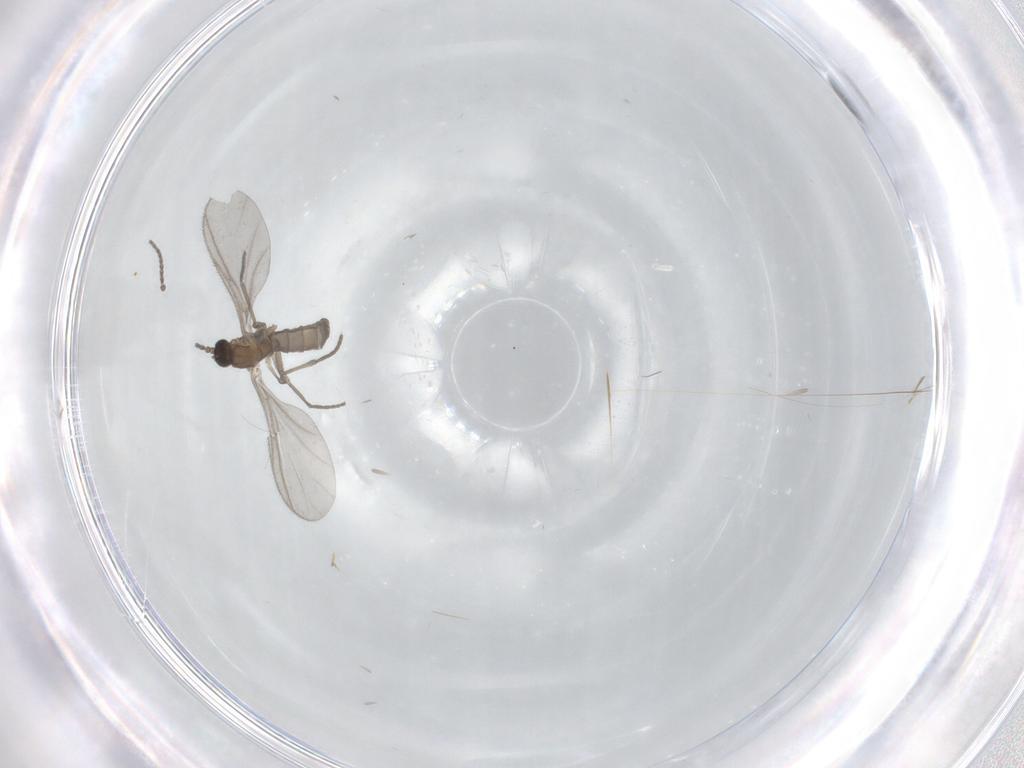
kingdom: Animalia
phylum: Arthropoda
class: Insecta
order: Diptera
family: Sciaridae
